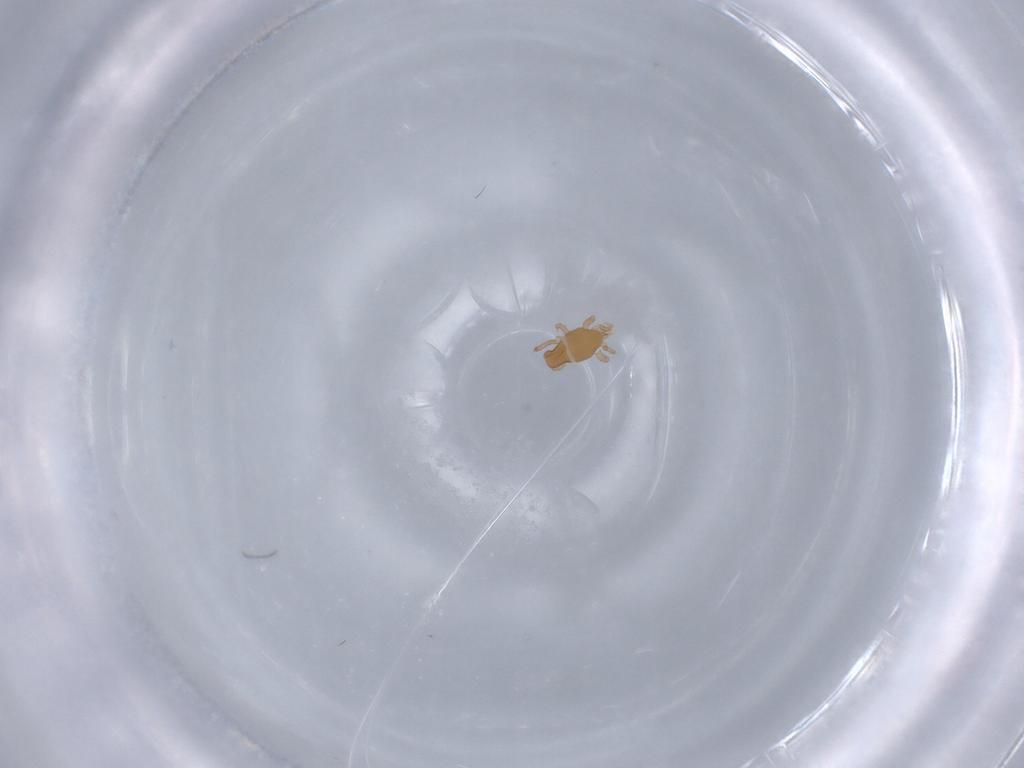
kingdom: Animalia
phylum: Arthropoda
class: Arachnida
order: Mesostigmata
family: Halolaelapidae
